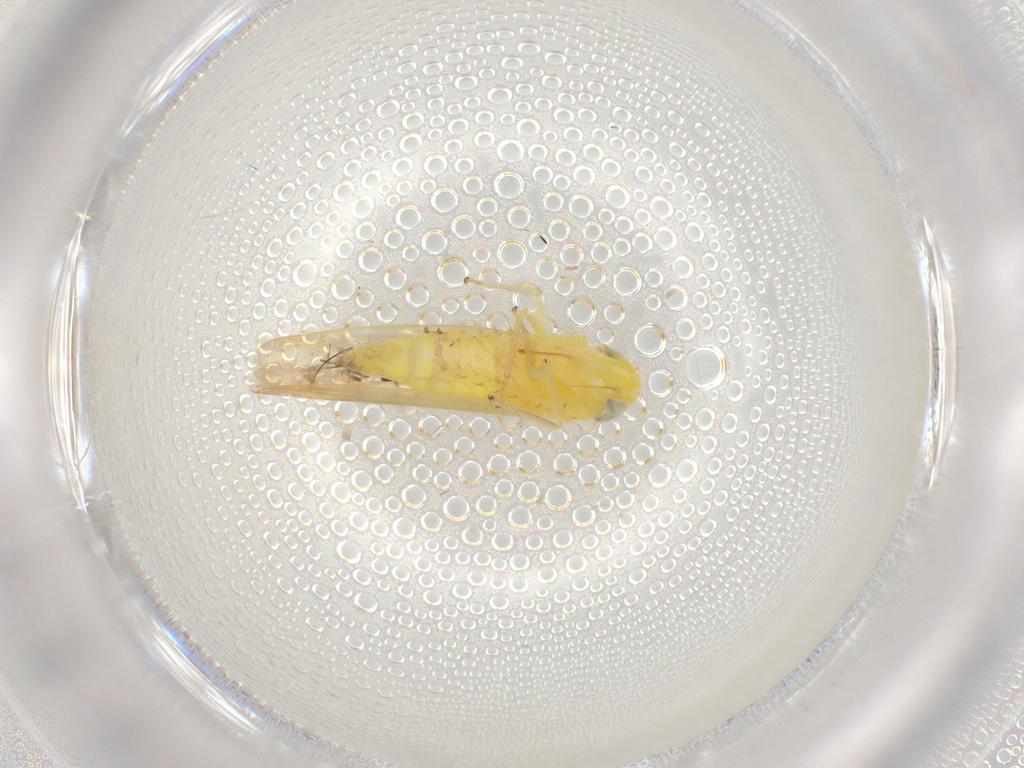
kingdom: Animalia
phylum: Arthropoda
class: Insecta
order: Hemiptera
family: Cicadellidae
